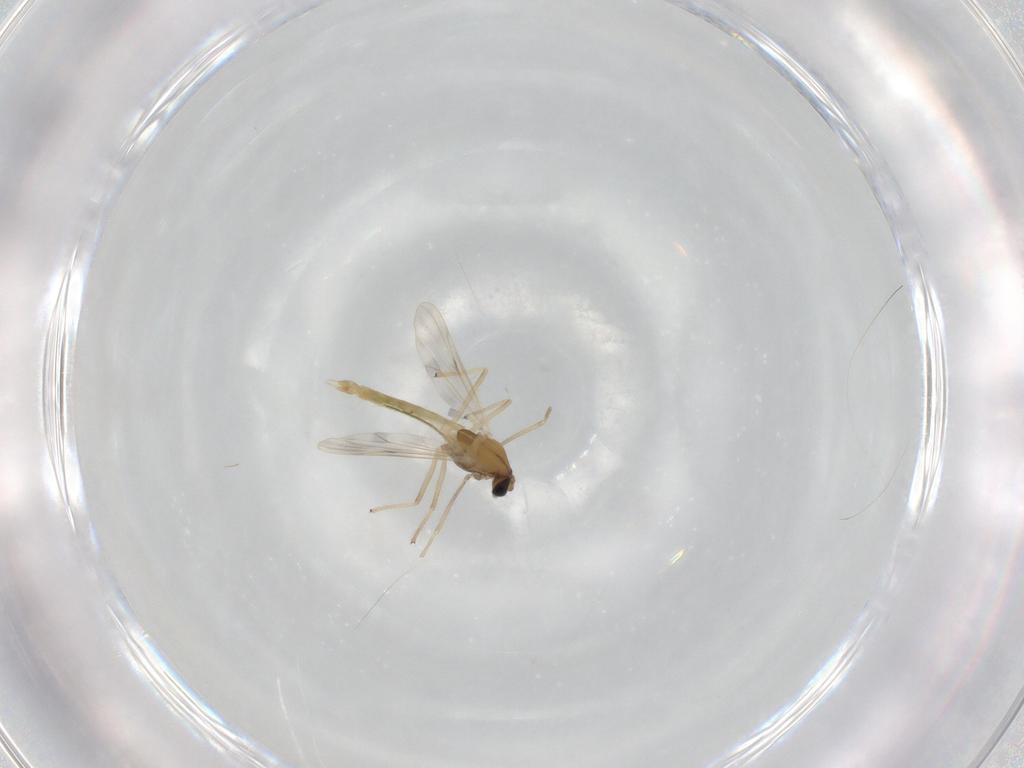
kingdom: Animalia
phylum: Arthropoda
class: Insecta
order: Diptera
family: Chironomidae
